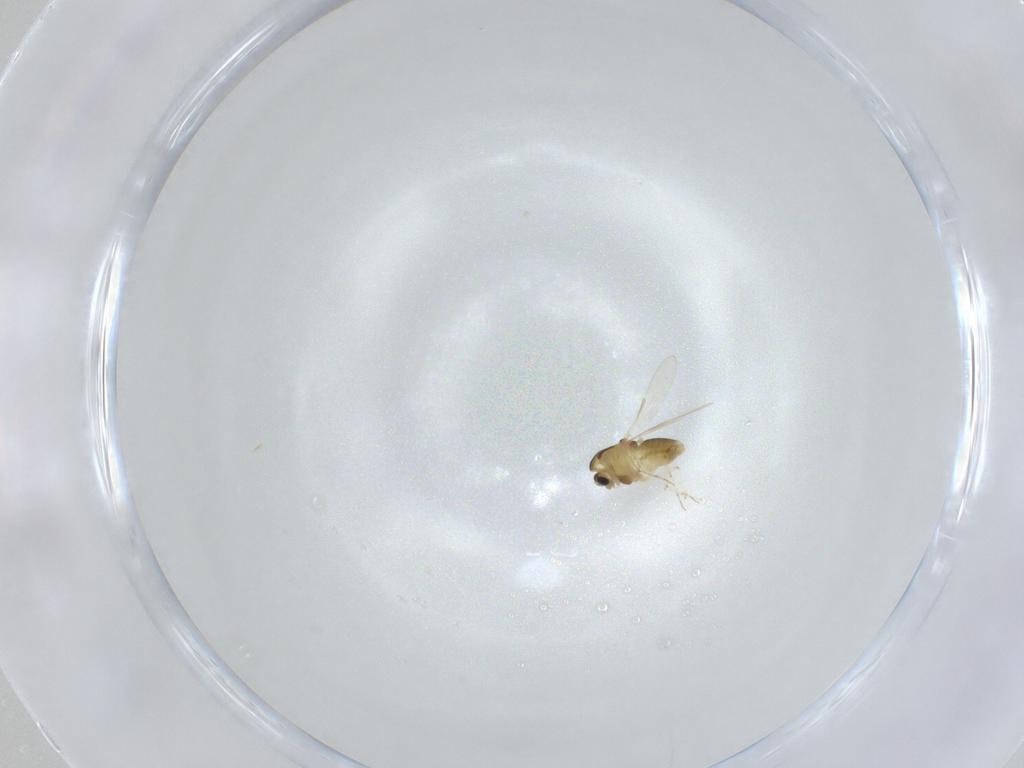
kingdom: Animalia
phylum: Arthropoda
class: Insecta
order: Diptera
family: Chironomidae
